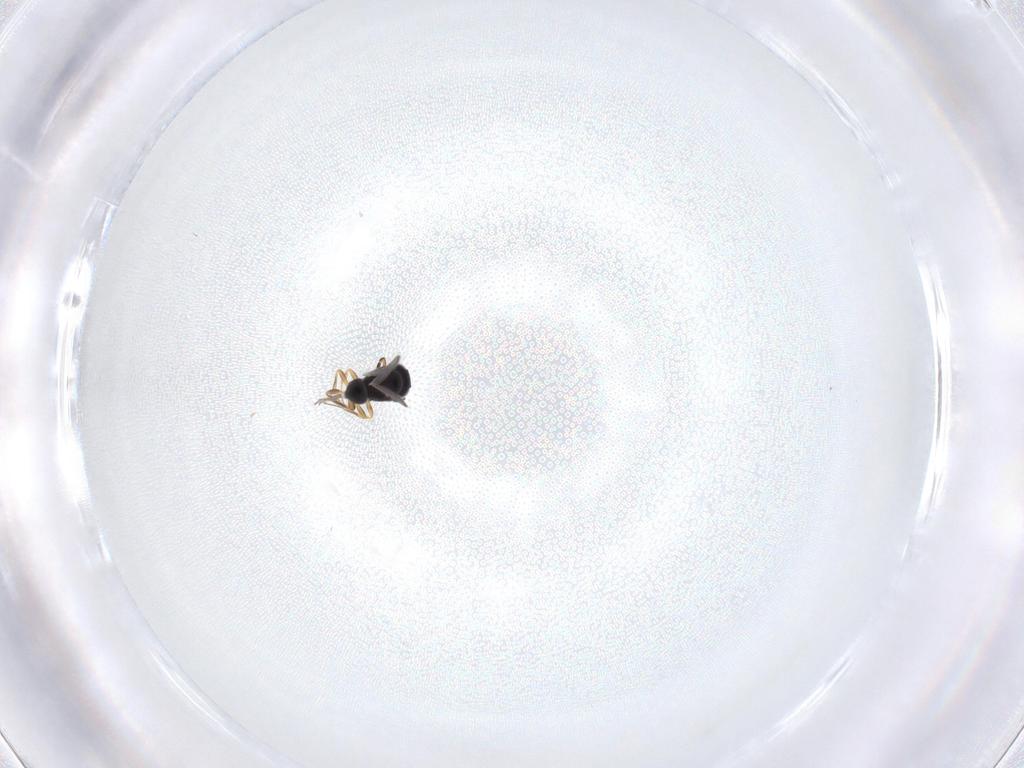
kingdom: Animalia
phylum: Arthropoda
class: Insecta
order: Hymenoptera
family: Scelionidae
